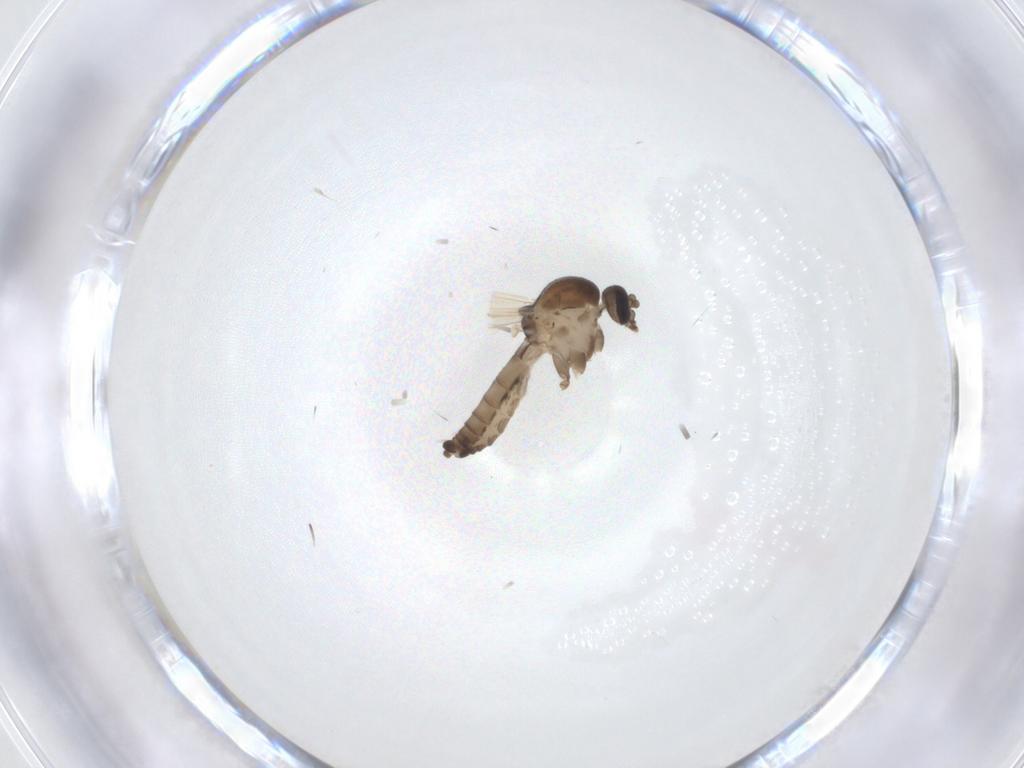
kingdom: Animalia
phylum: Arthropoda
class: Insecta
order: Diptera
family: Ceratopogonidae
